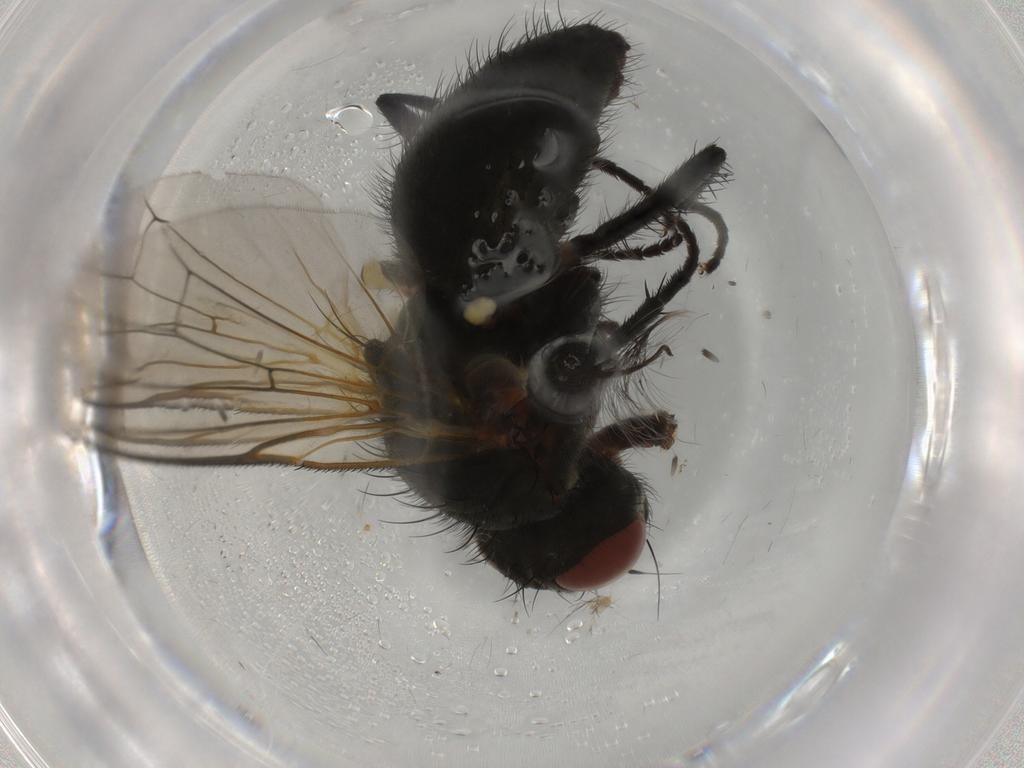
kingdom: Animalia
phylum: Arthropoda
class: Insecta
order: Diptera
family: Anthomyiidae
